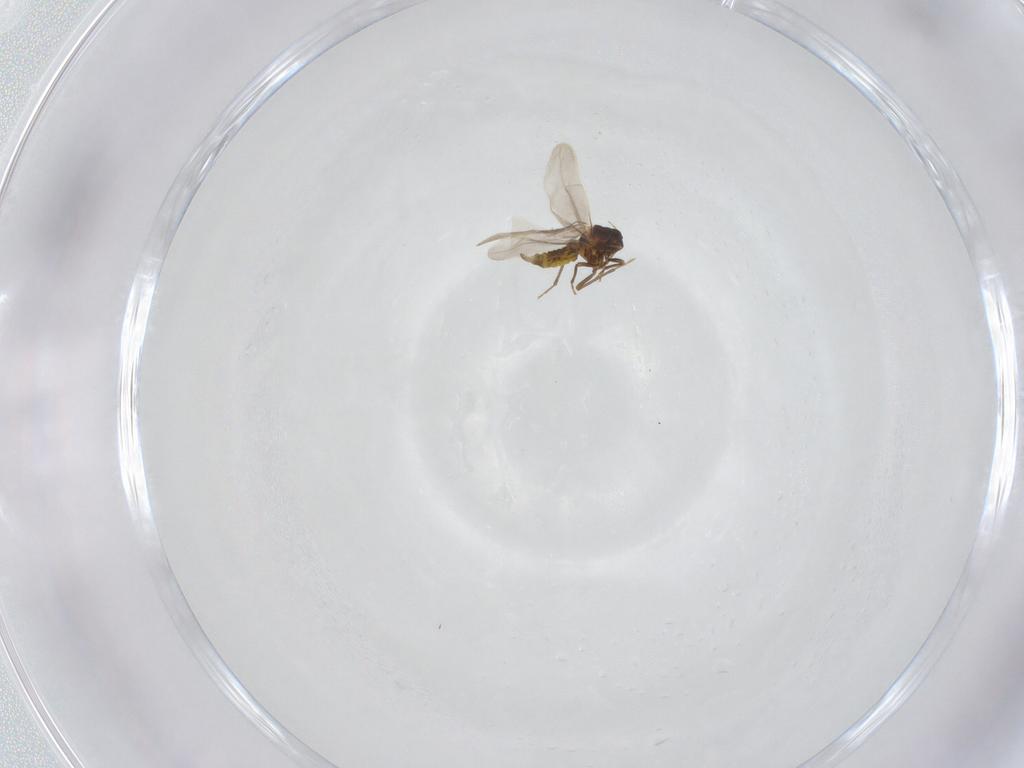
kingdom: Animalia
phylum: Arthropoda
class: Insecta
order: Hemiptera
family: Aleyrodidae
